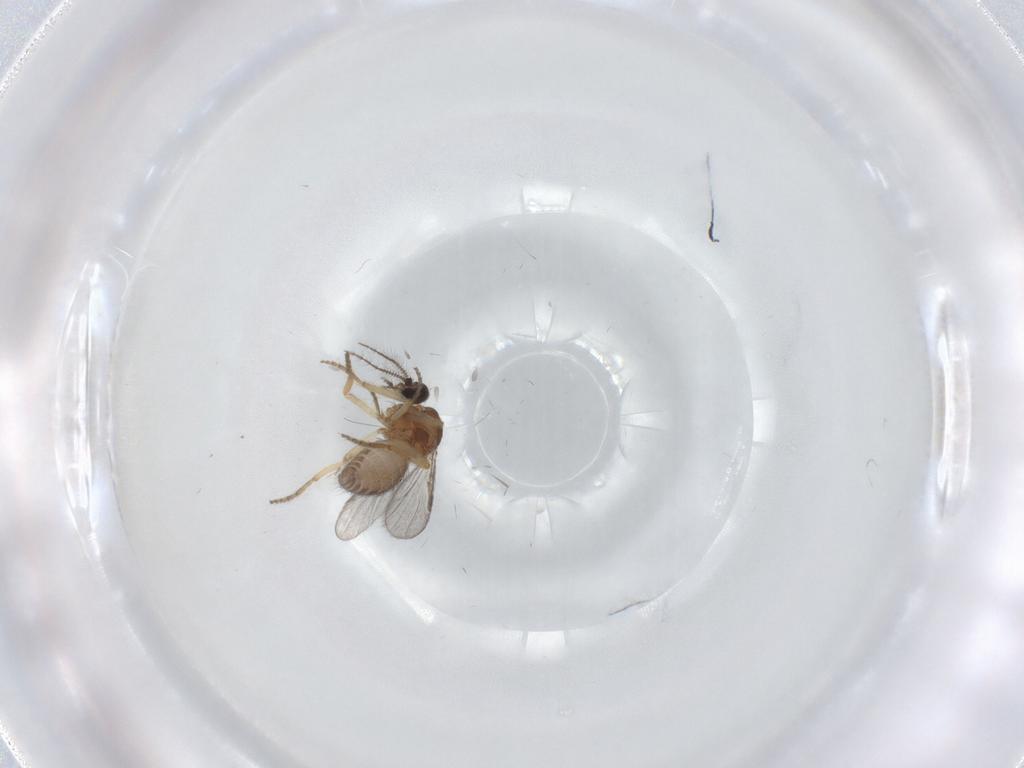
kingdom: Animalia
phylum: Arthropoda
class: Insecta
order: Diptera
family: Ceratopogonidae
